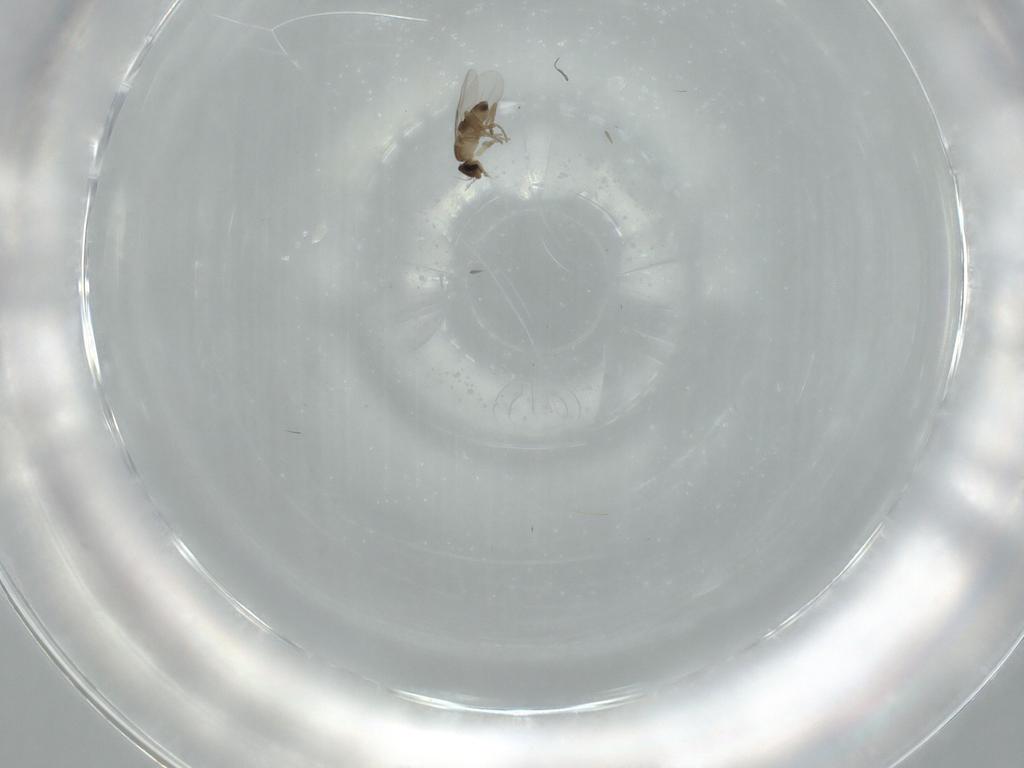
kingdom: Animalia
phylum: Arthropoda
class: Insecta
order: Diptera
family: Phoridae
